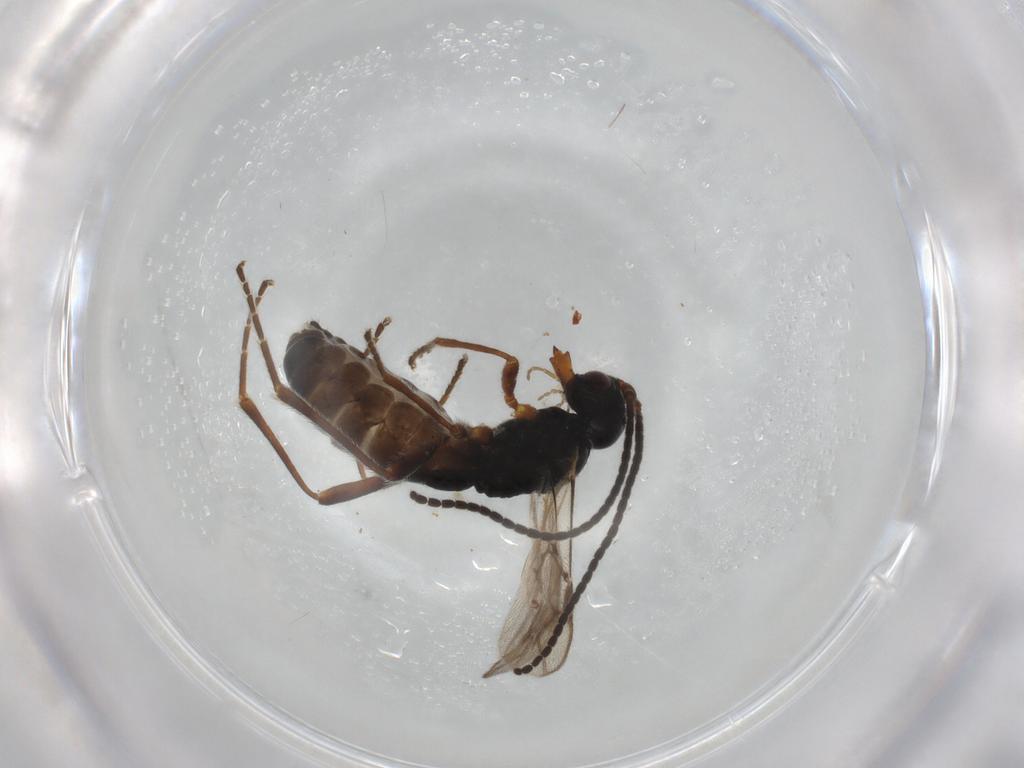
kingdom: Animalia
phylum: Arthropoda
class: Insecta
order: Hymenoptera
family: Braconidae
